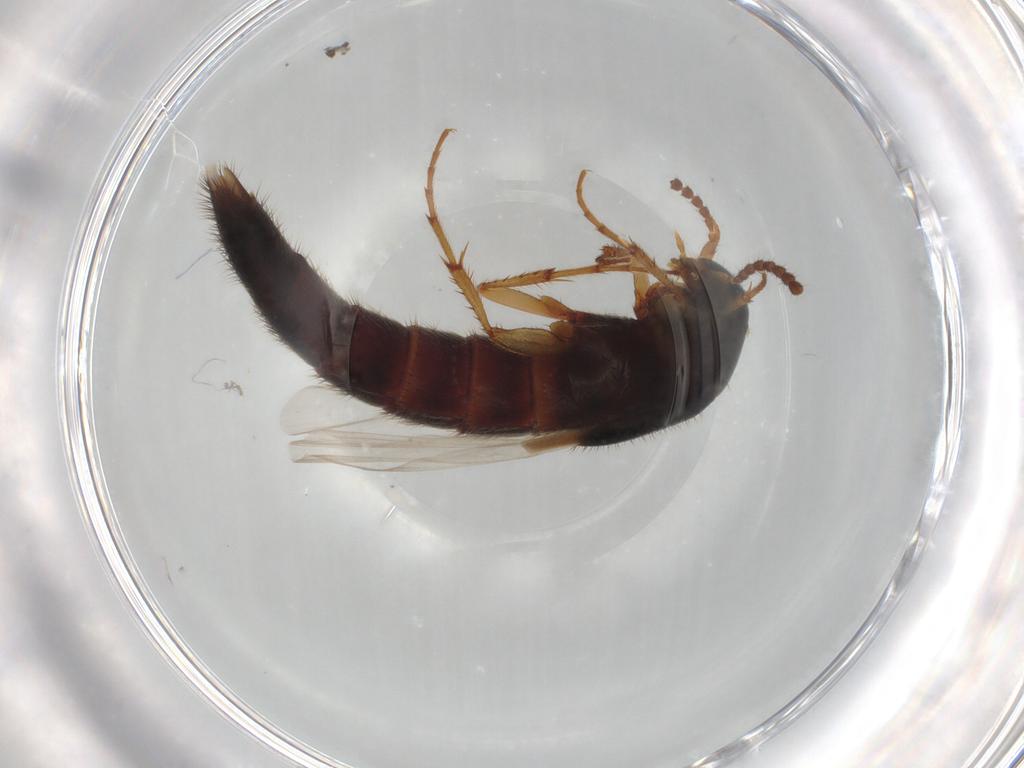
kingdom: Animalia
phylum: Arthropoda
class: Insecta
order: Coleoptera
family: Staphylinidae
